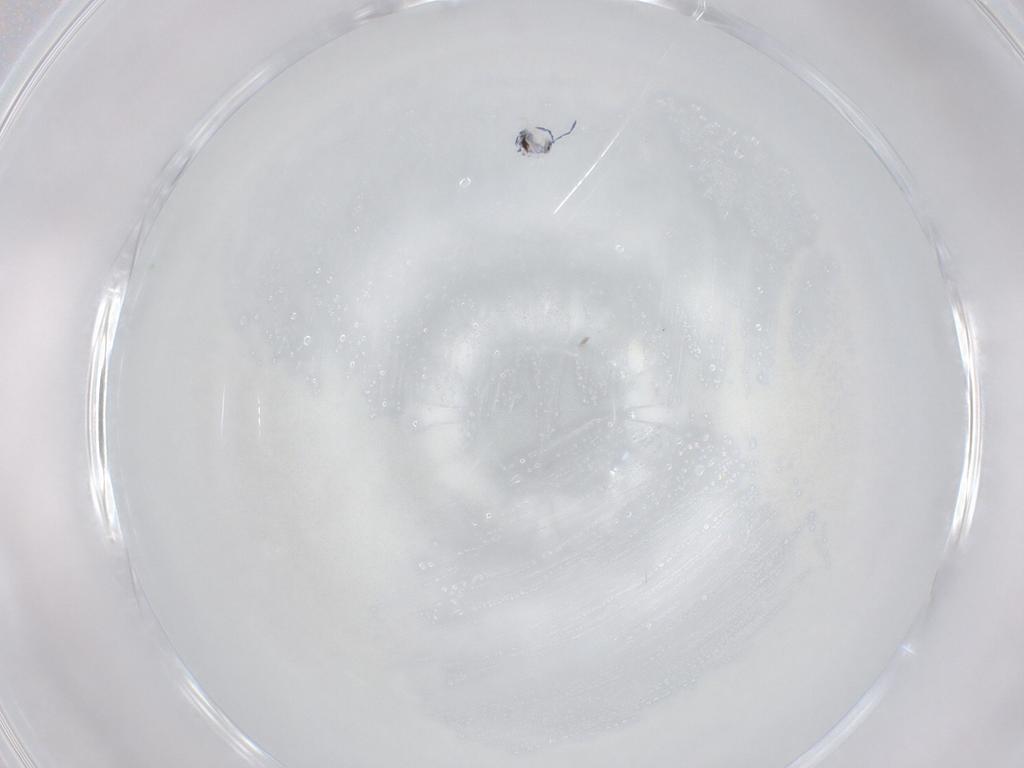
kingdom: Animalia
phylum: Arthropoda
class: Collembola
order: Entomobryomorpha
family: Entomobryidae
